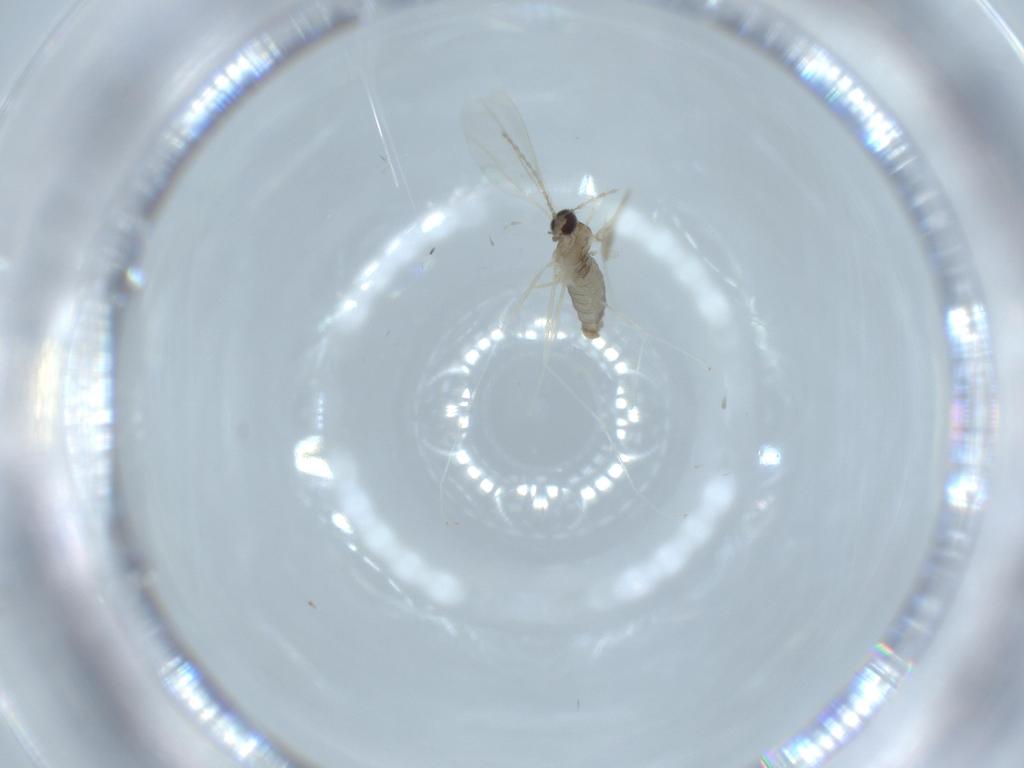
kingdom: Animalia
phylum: Arthropoda
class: Insecta
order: Diptera
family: Cecidomyiidae
